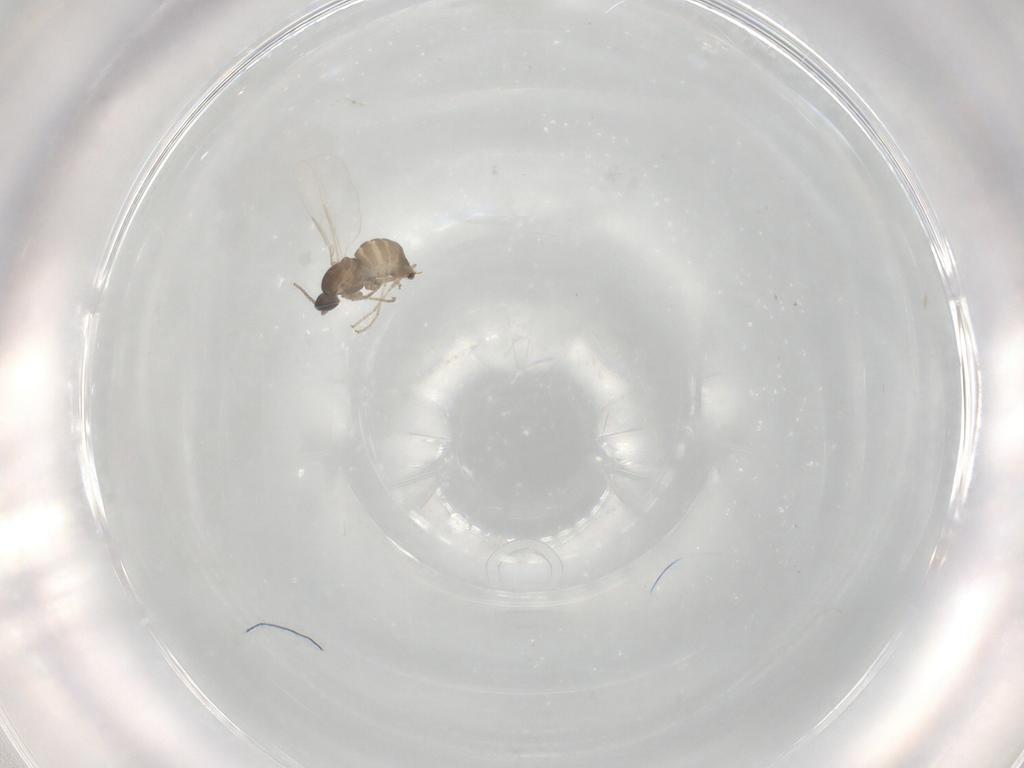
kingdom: Animalia
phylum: Arthropoda
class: Insecta
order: Diptera
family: Cecidomyiidae
